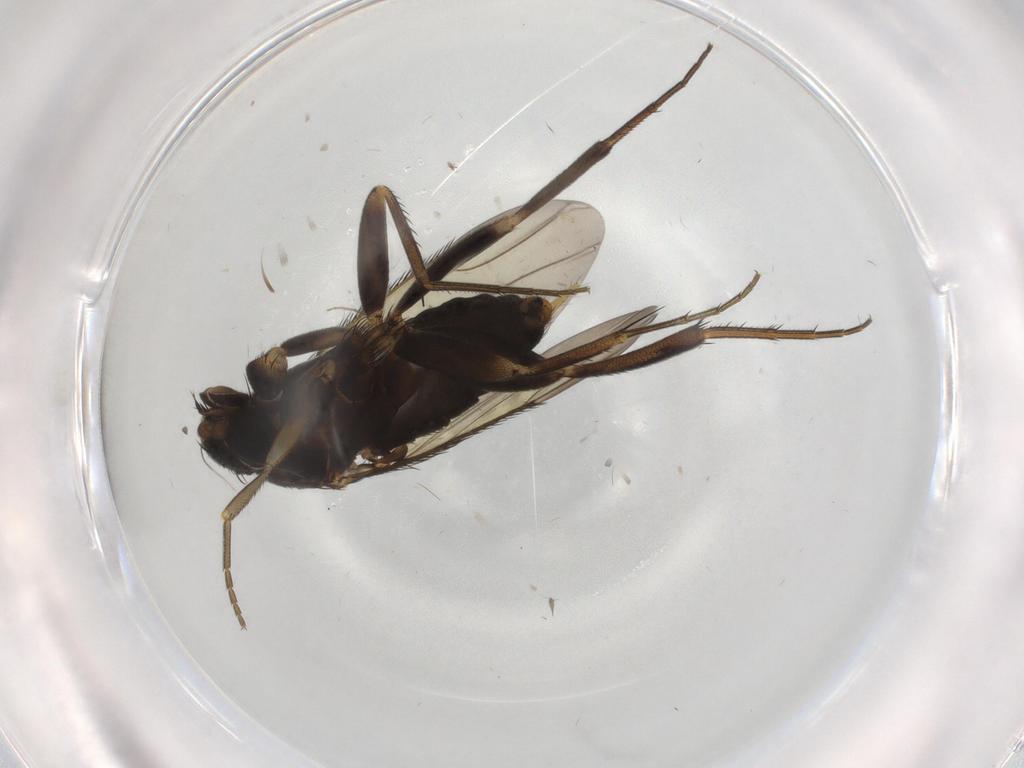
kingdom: Animalia
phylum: Arthropoda
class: Insecta
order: Diptera
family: Phoridae
